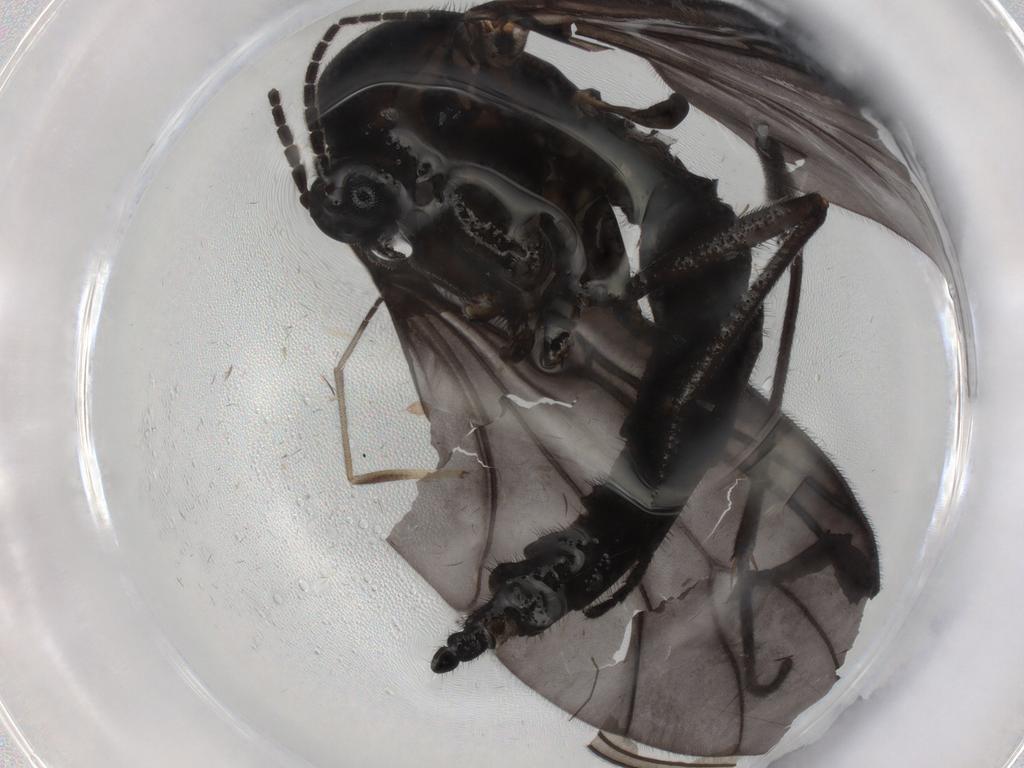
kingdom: Animalia
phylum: Arthropoda
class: Insecta
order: Diptera
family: Sciaridae
